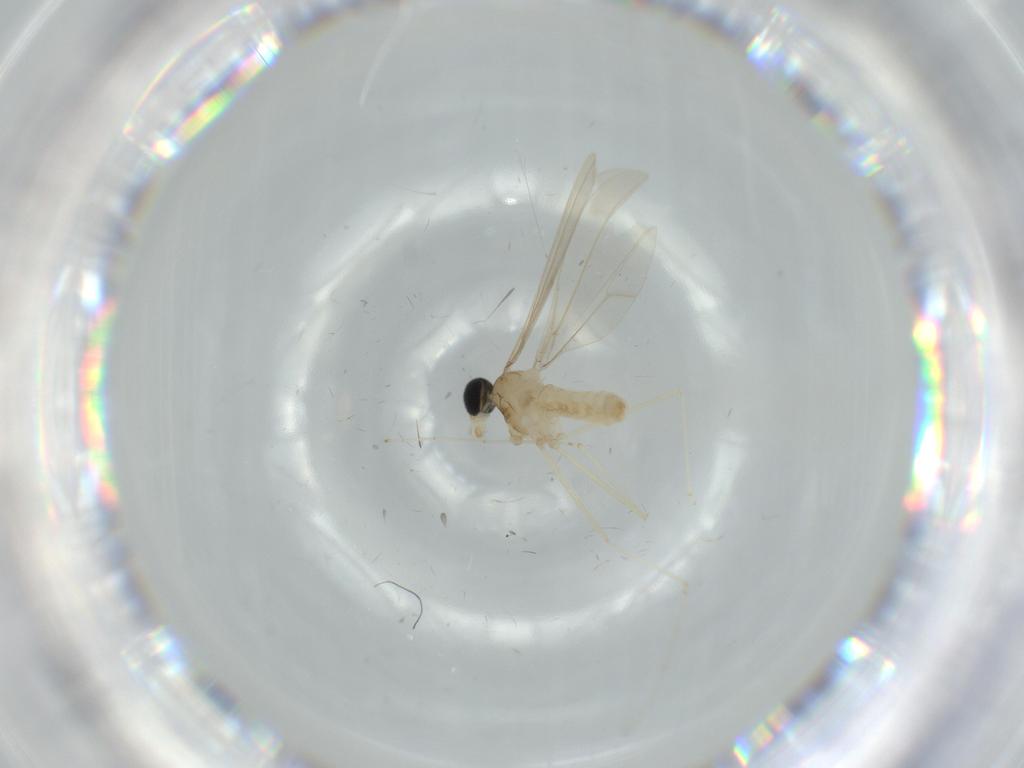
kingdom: Animalia
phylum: Arthropoda
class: Insecta
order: Diptera
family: Cecidomyiidae
